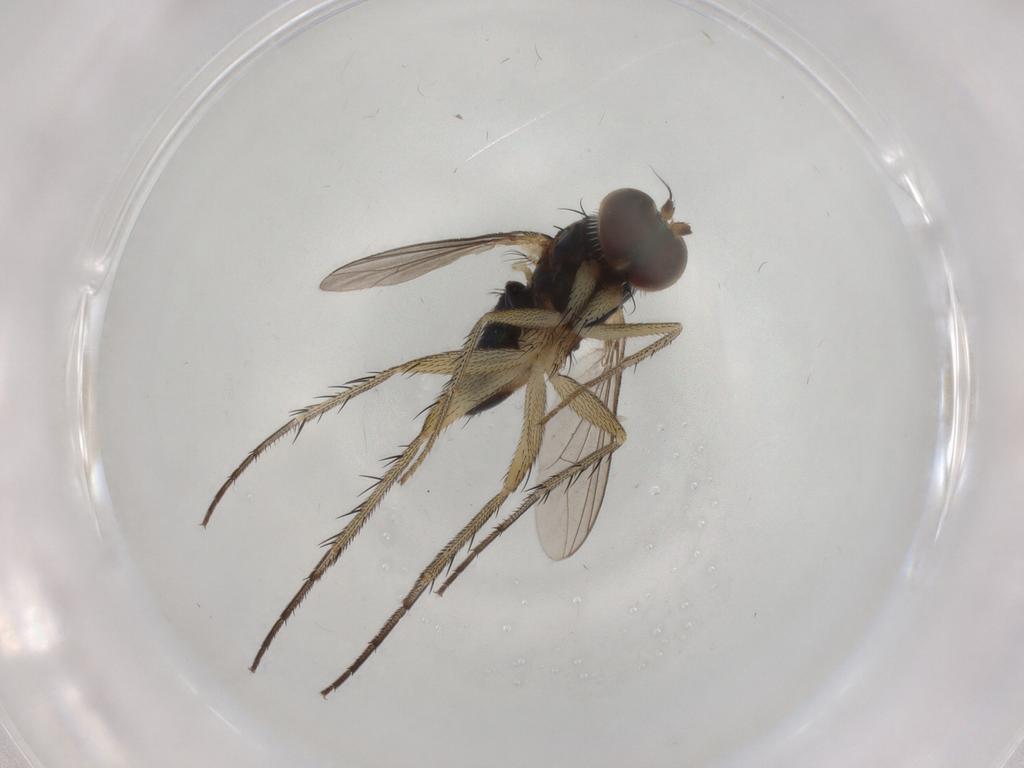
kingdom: Animalia
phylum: Arthropoda
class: Insecta
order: Diptera
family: Dolichopodidae
